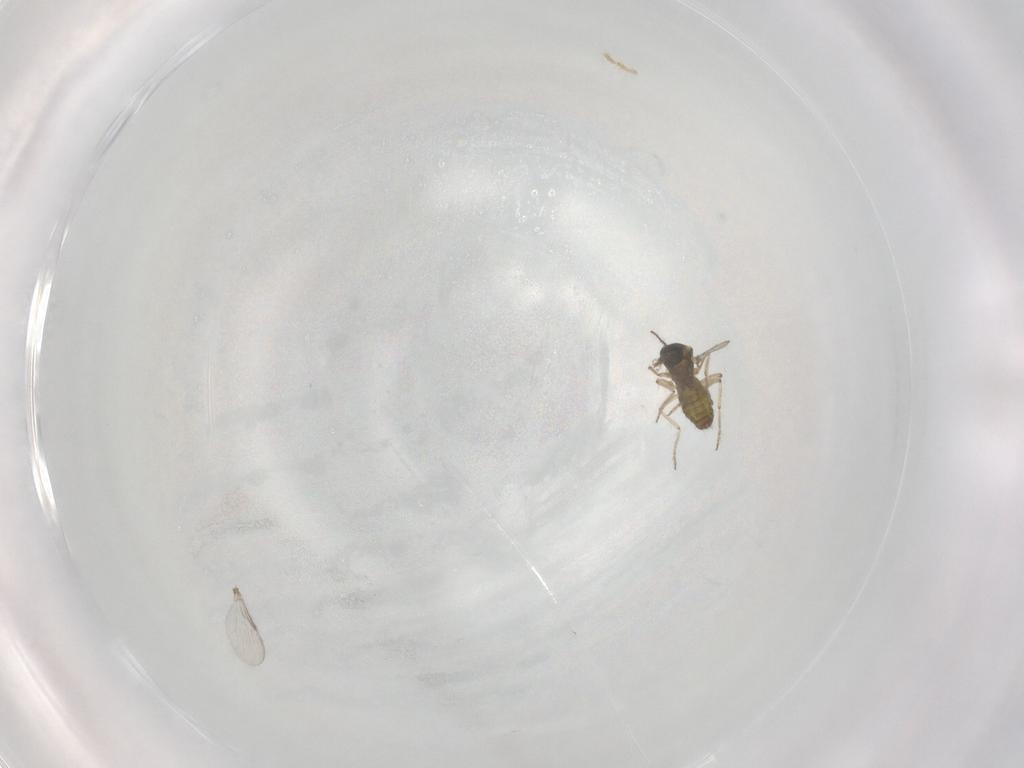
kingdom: Animalia
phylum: Arthropoda
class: Insecta
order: Diptera
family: Ceratopogonidae
